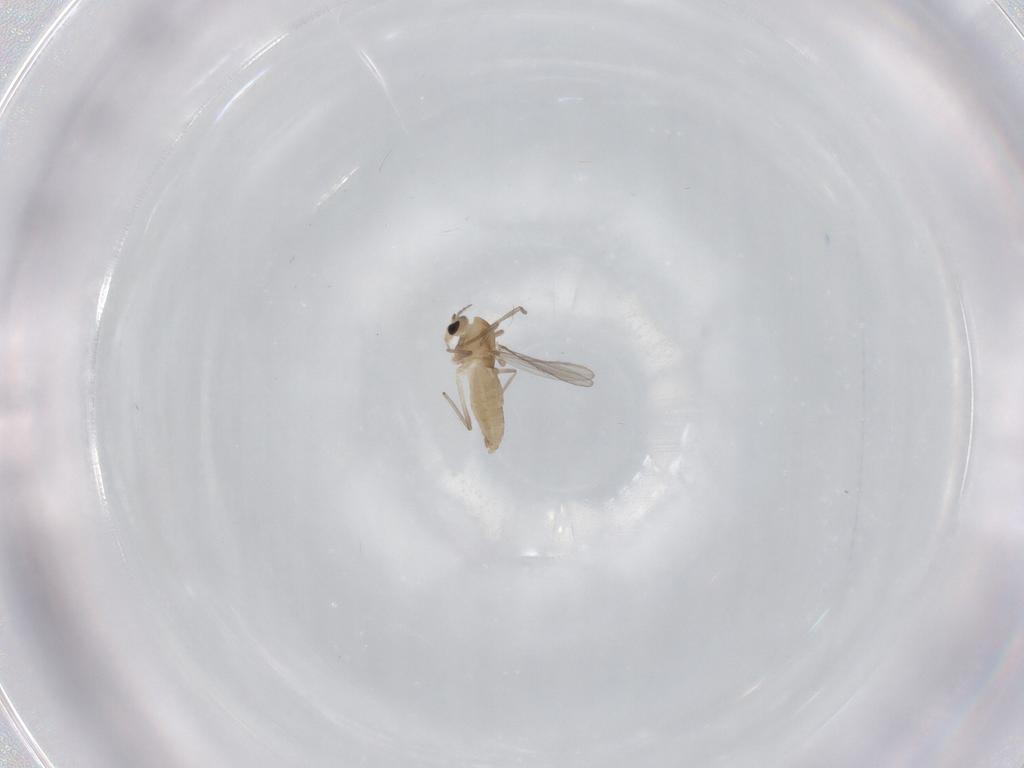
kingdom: Animalia
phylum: Arthropoda
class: Insecta
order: Diptera
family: Chironomidae
